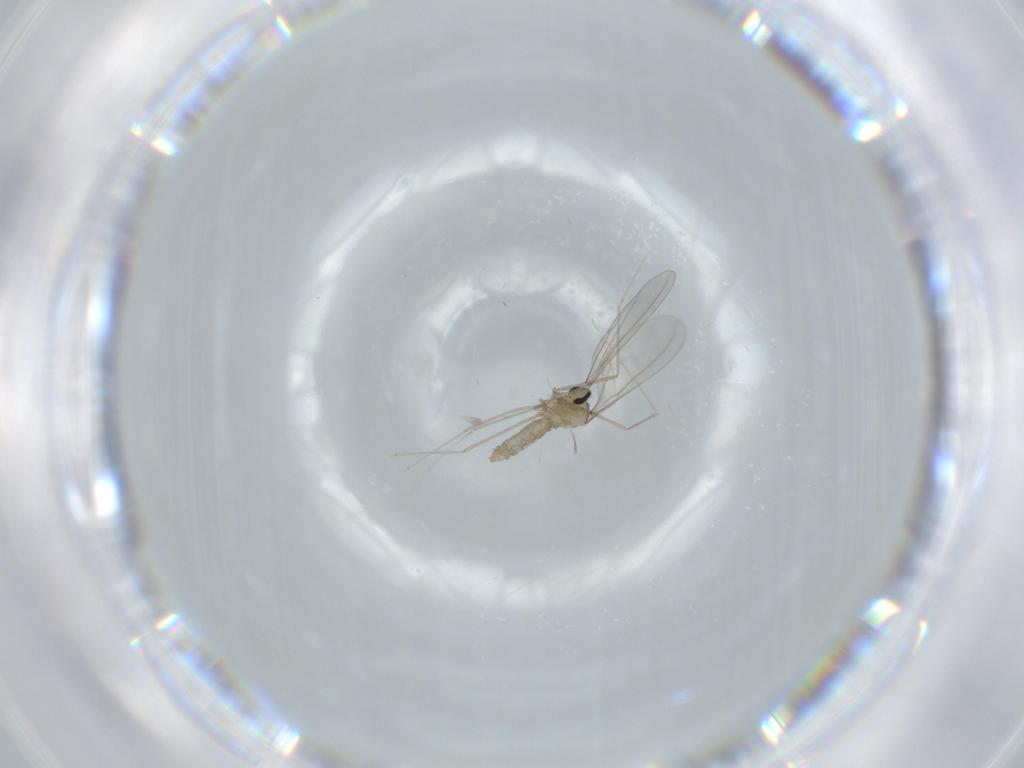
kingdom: Animalia
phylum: Arthropoda
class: Insecta
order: Diptera
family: Cecidomyiidae
